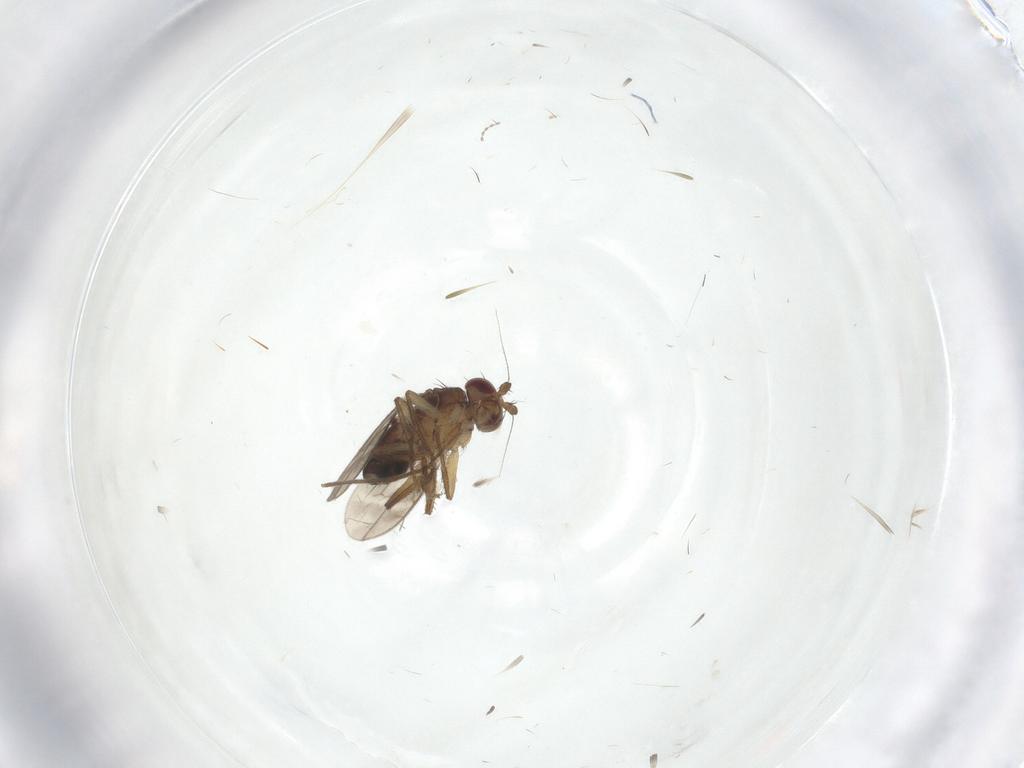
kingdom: Animalia
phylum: Arthropoda
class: Insecta
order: Diptera
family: Sphaeroceridae
